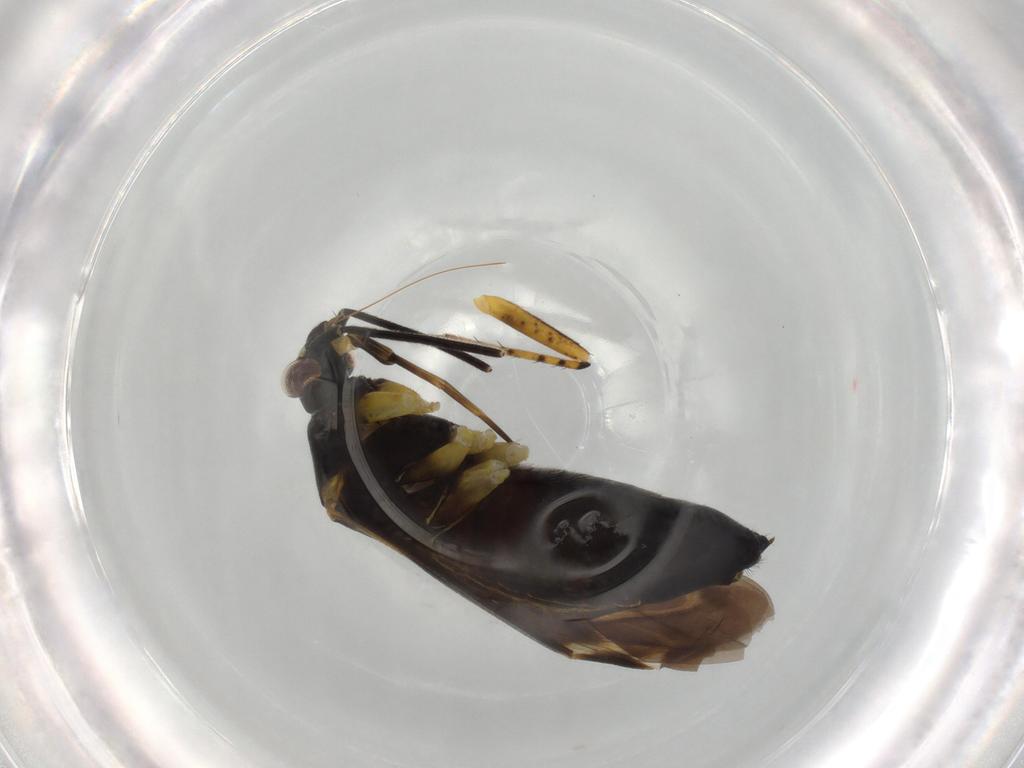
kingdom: Animalia
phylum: Arthropoda
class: Insecta
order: Hemiptera
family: Miridae
